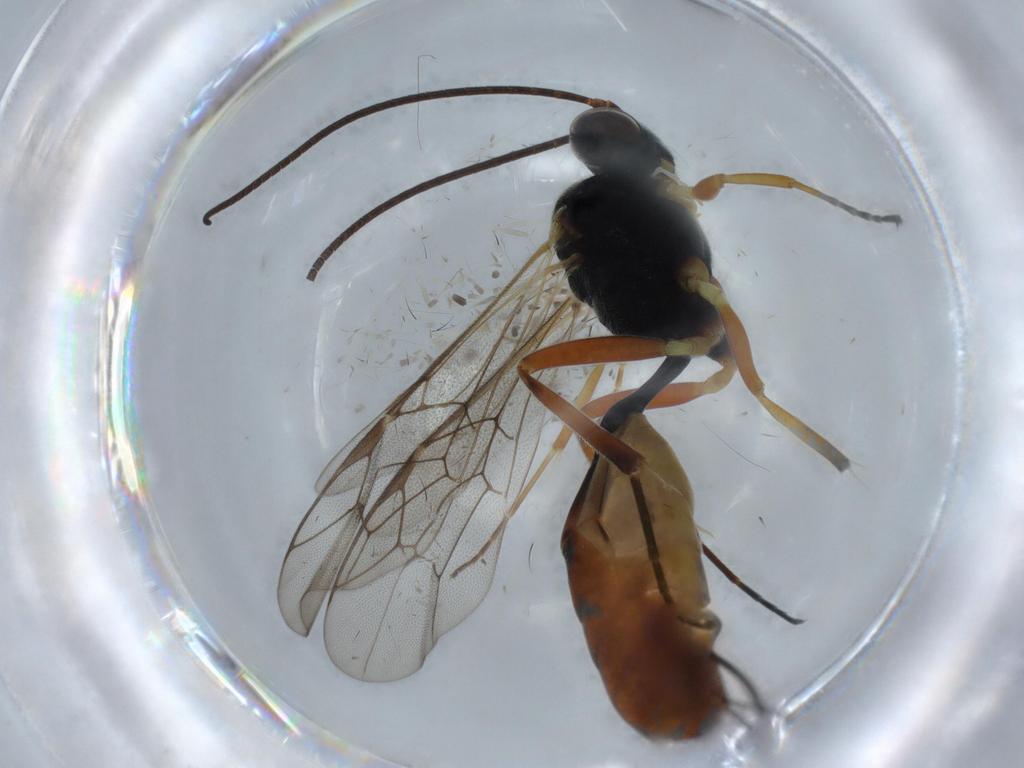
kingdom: Animalia
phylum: Arthropoda
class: Insecta
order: Hymenoptera
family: Ichneumonidae
